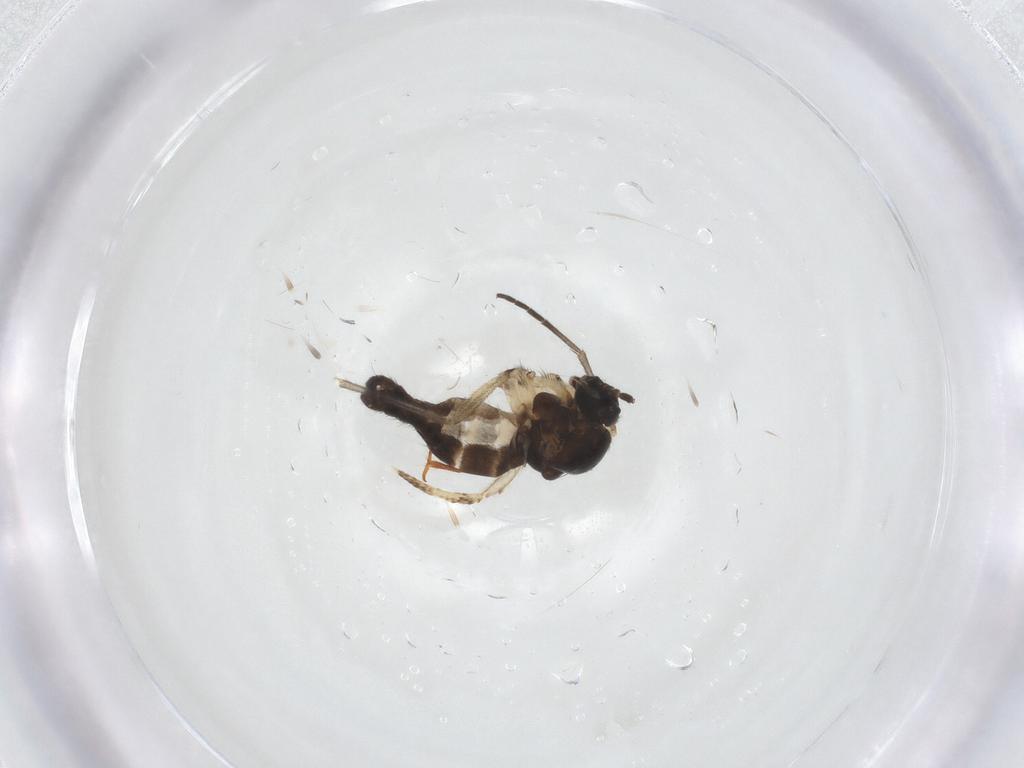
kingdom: Animalia
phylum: Arthropoda
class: Insecta
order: Diptera
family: Sciaridae
